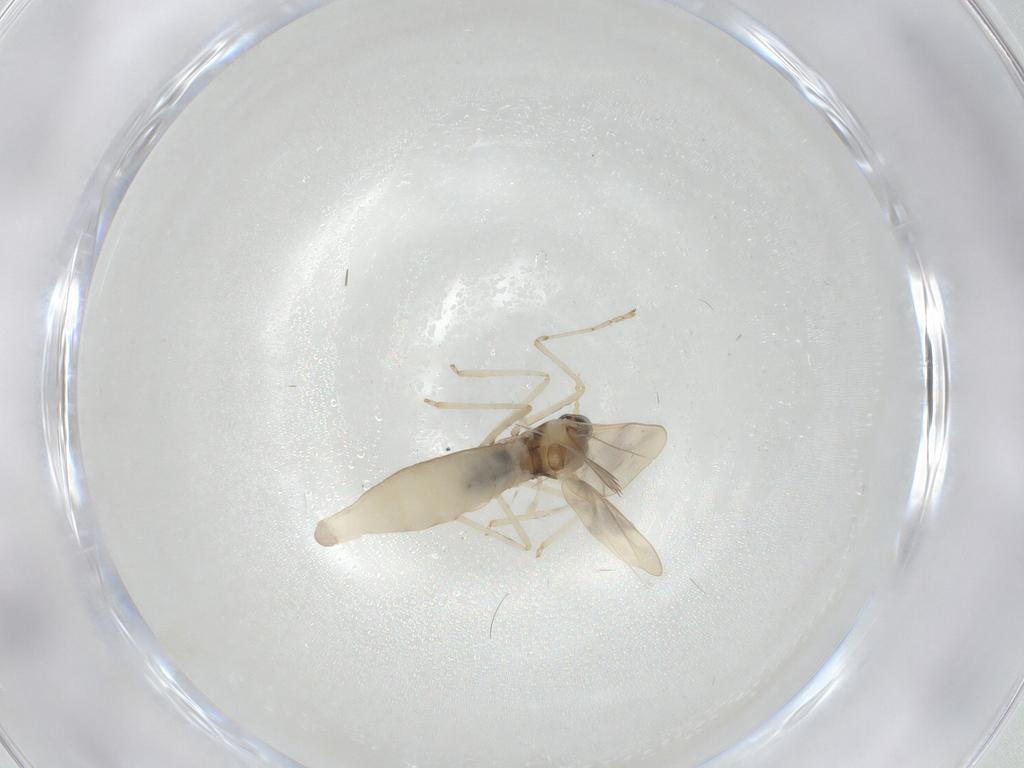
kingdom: Animalia
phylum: Arthropoda
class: Insecta
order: Diptera
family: Cecidomyiidae
